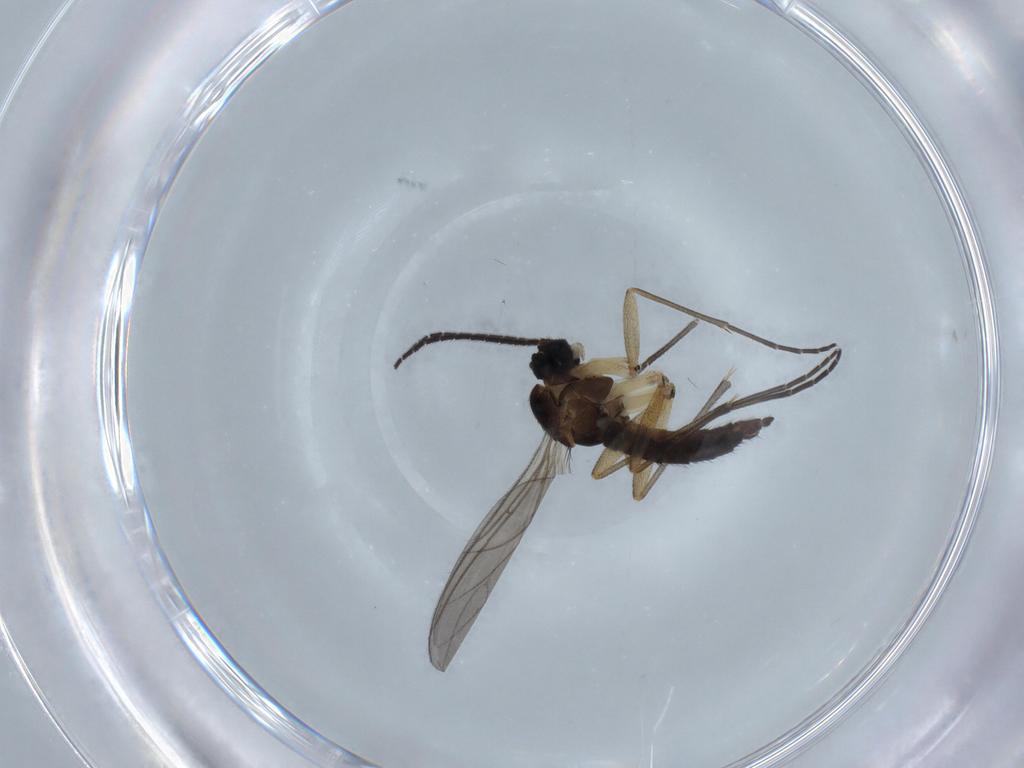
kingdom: Animalia
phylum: Arthropoda
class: Insecta
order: Diptera
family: Sciaridae
